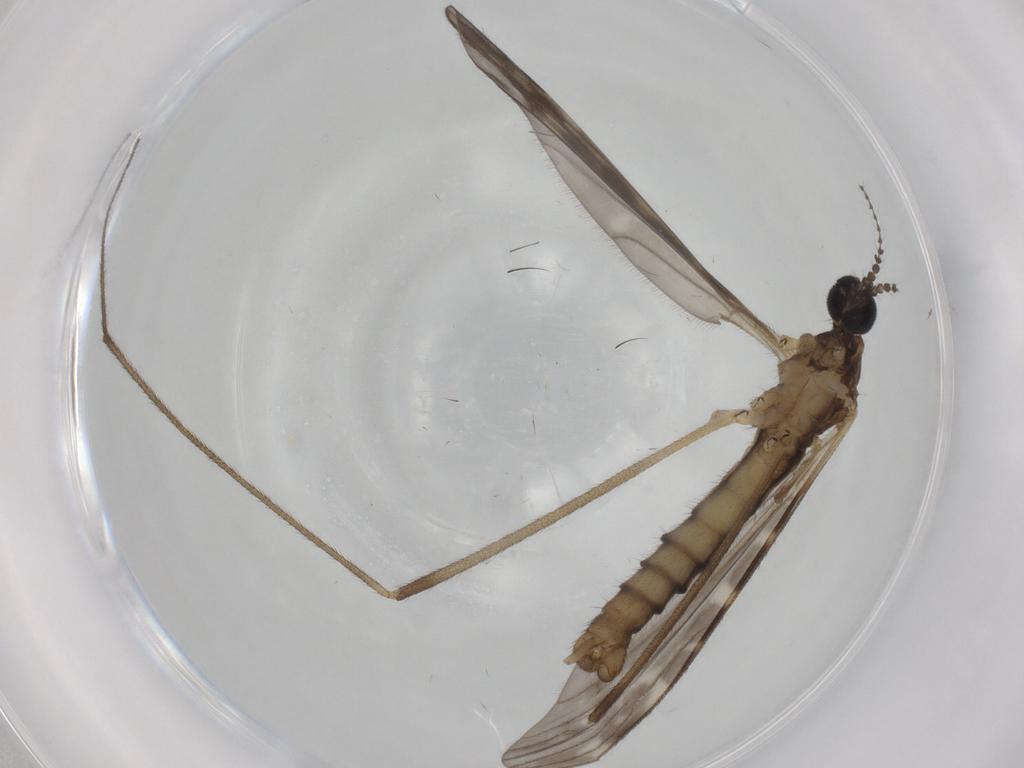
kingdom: Animalia
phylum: Arthropoda
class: Insecta
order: Diptera
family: Limoniidae
